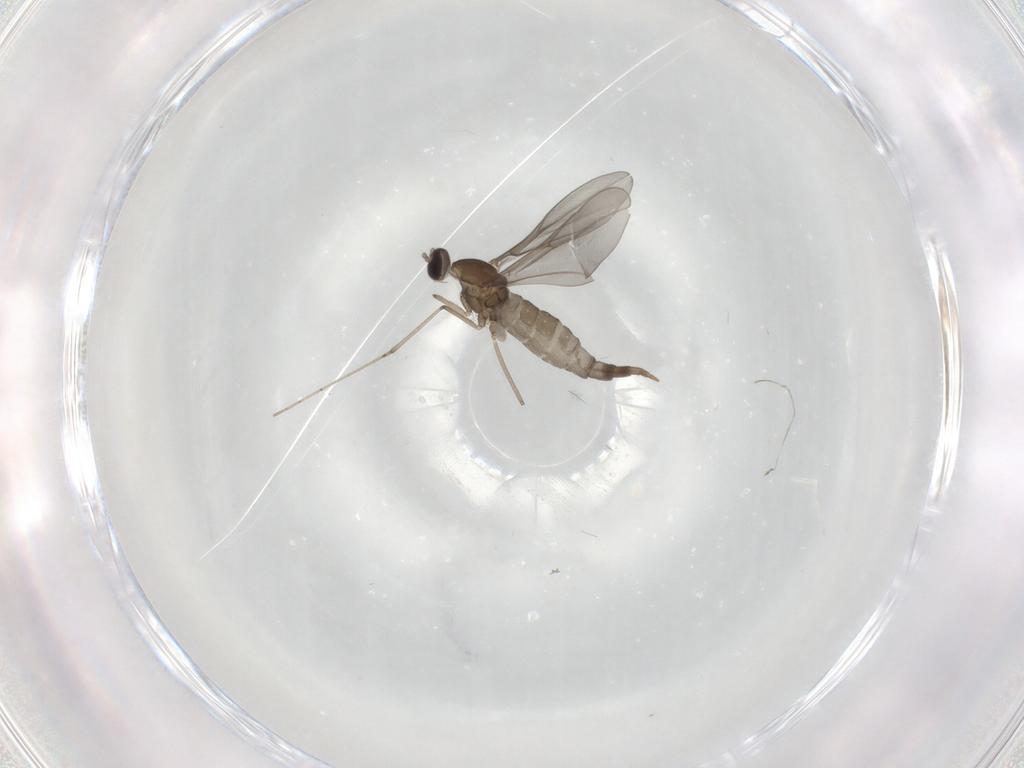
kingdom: Animalia
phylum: Arthropoda
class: Insecta
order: Diptera
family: Cecidomyiidae
